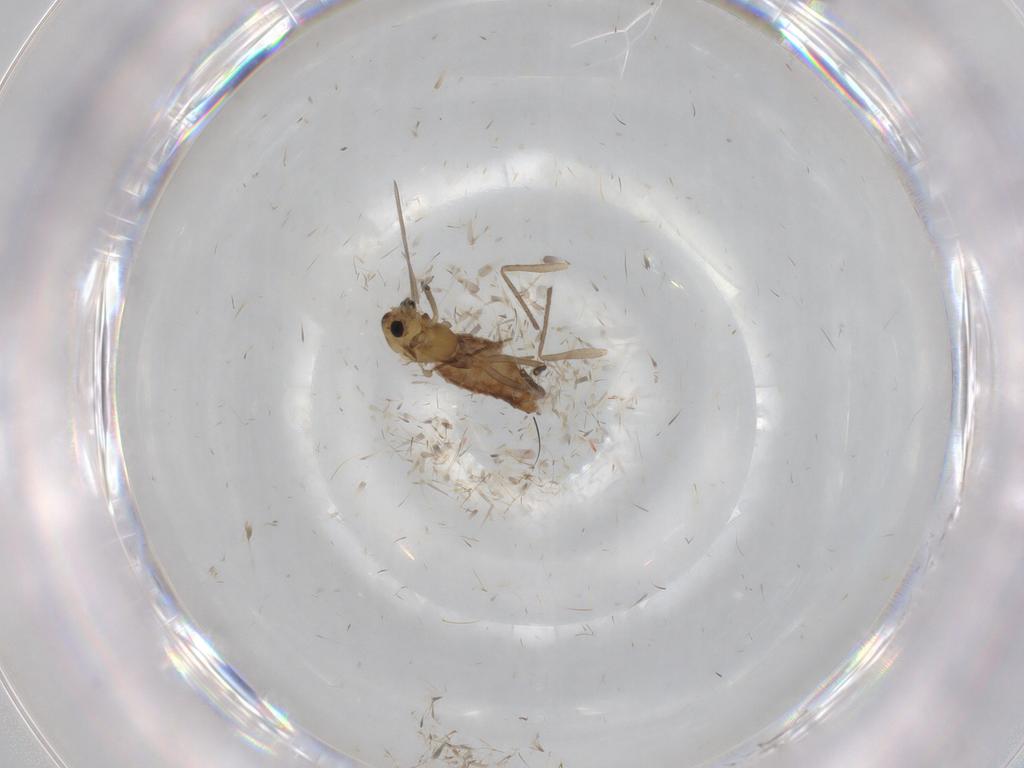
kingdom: Animalia
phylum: Arthropoda
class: Insecta
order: Diptera
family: Chironomidae
